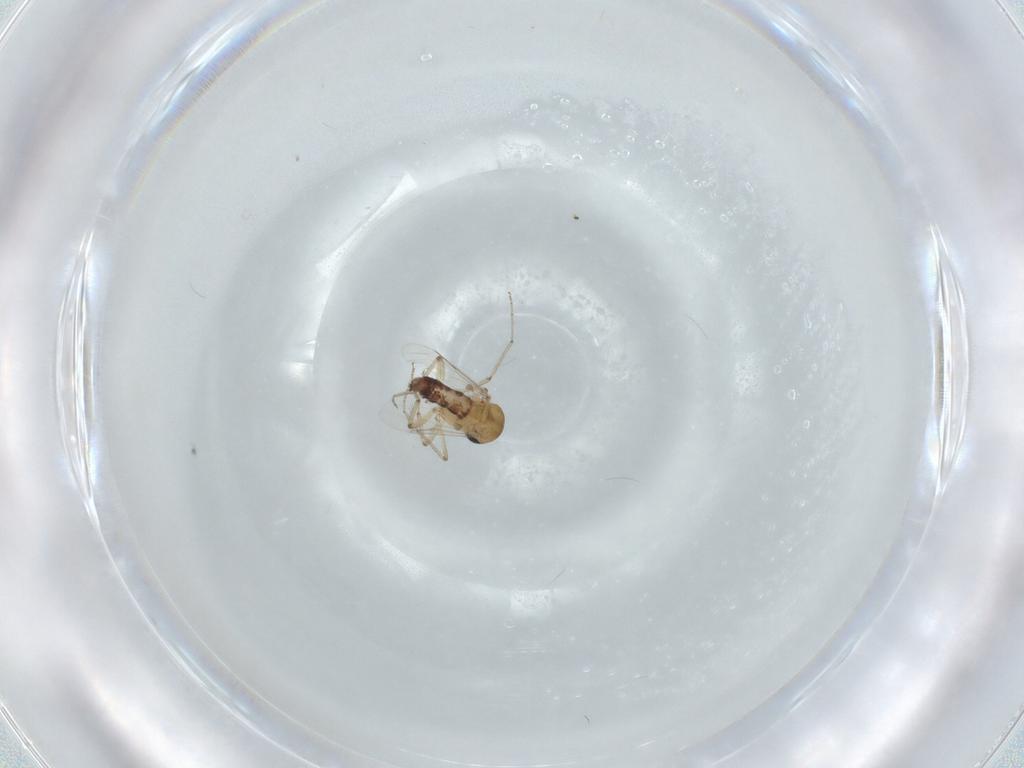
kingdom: Animalia
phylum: Arthropoda
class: Insecta
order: Diptera
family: Ceratopogonidae
